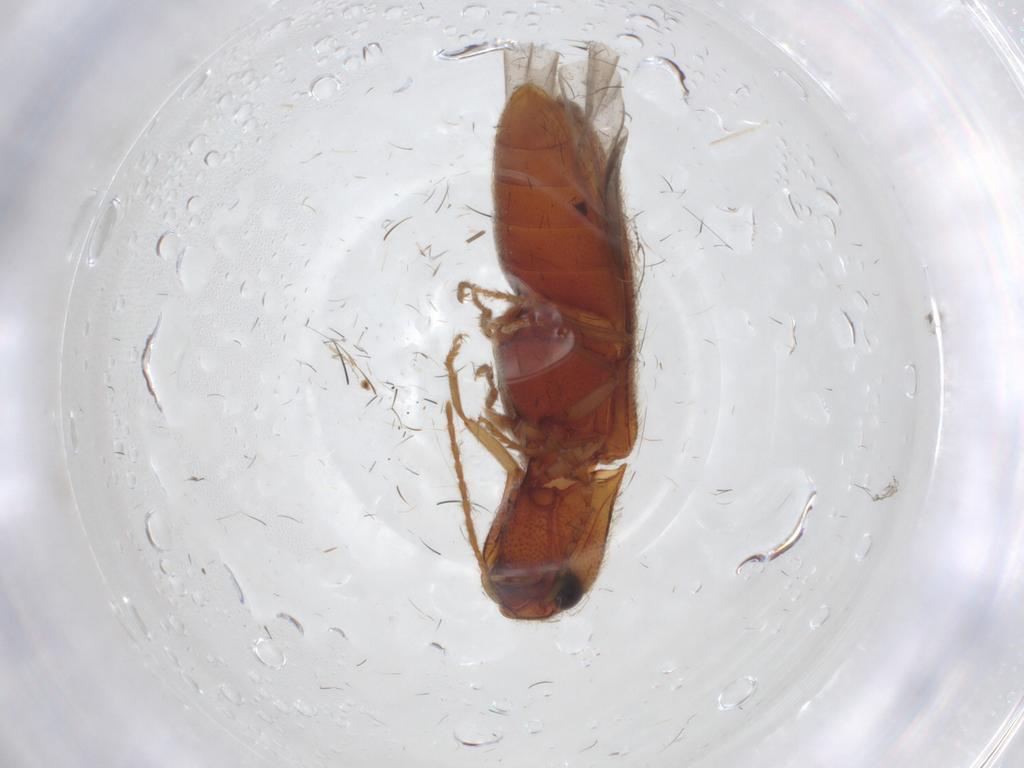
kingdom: Animalia
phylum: Arthropoda
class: Insecta
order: Coleoptera
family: Elateridae
